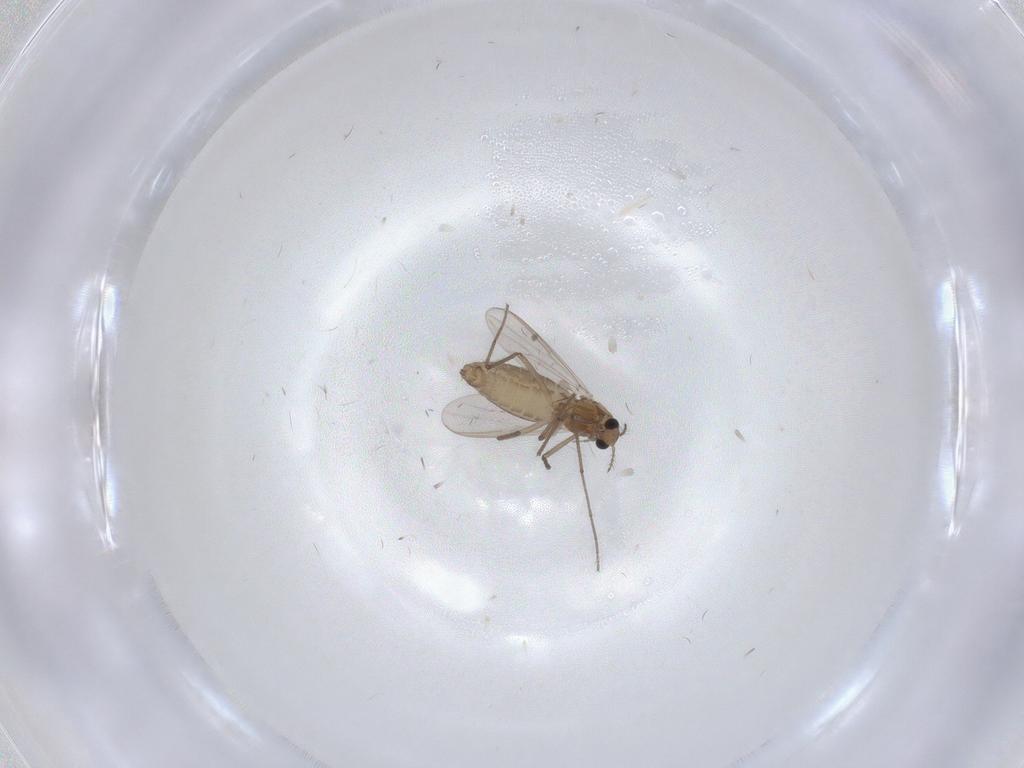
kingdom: Animalia
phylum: Arthropoda
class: Insecta
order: Diptera
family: Chironomidae
